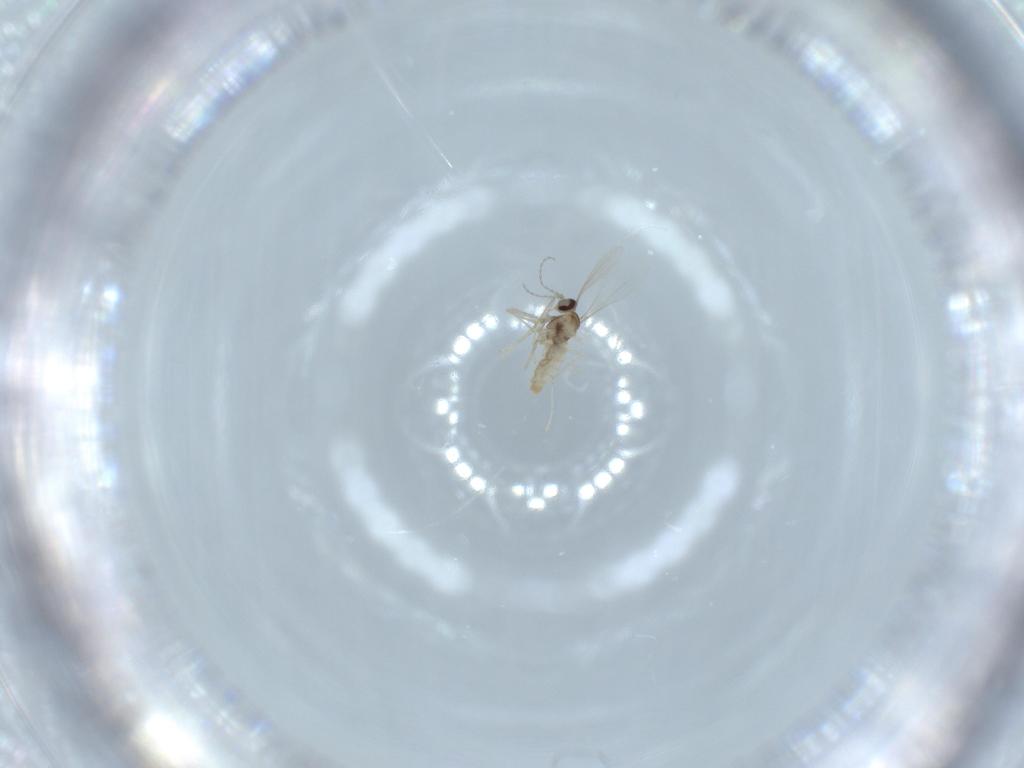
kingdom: Animalia
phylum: Arthropoda
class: Insecta
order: Diptera
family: Cecidomyiidae
